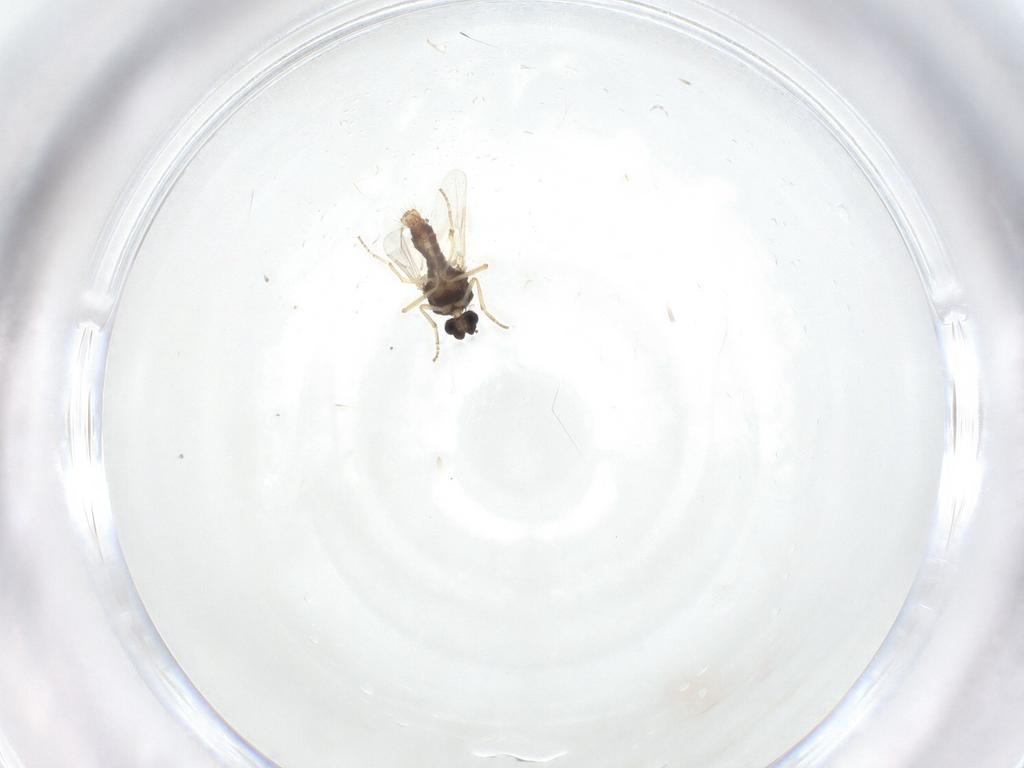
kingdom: Animalia
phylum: Arthropoda
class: Insecta
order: Diptera
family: Ceratopogonidae
